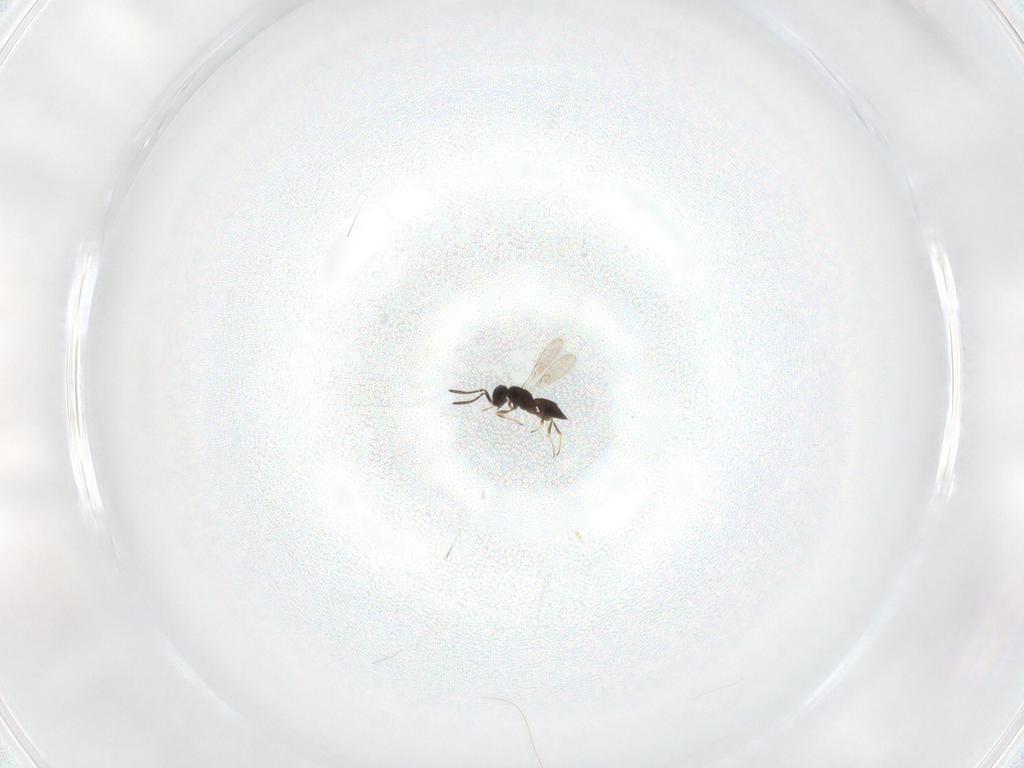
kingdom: Animalia
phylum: Arthropoda
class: Insecta
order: Hymenoptera
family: Scelionidae
